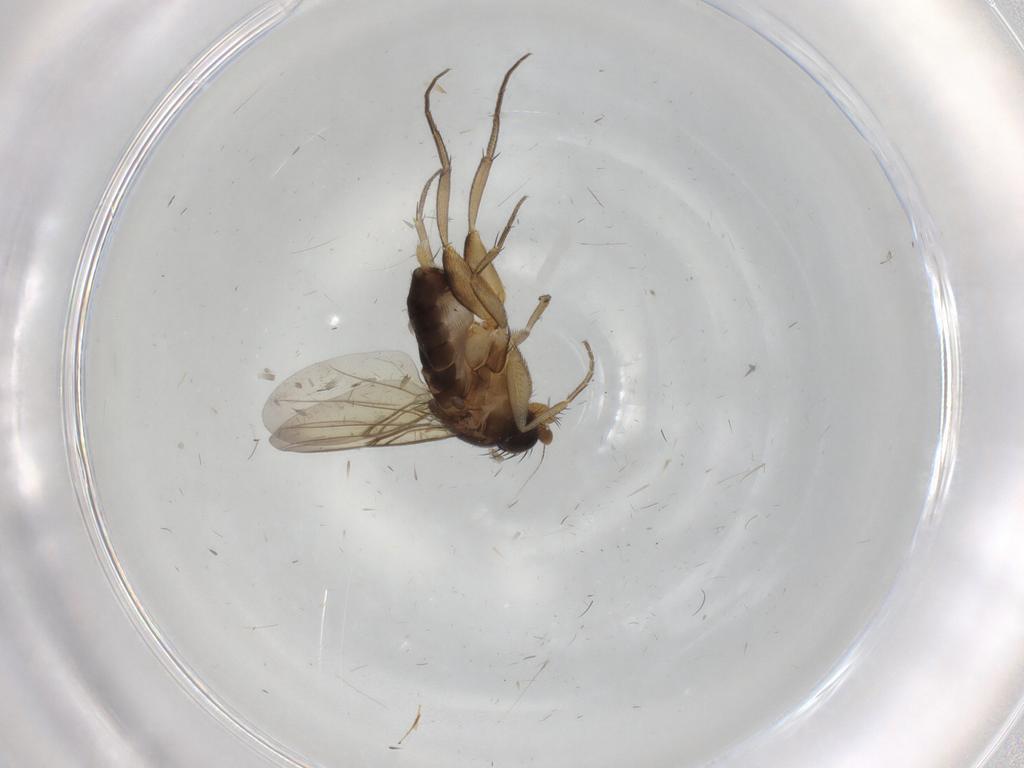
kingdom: Animalia
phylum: Arthropoda
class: Insecta
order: Diptera
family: Phoridae
